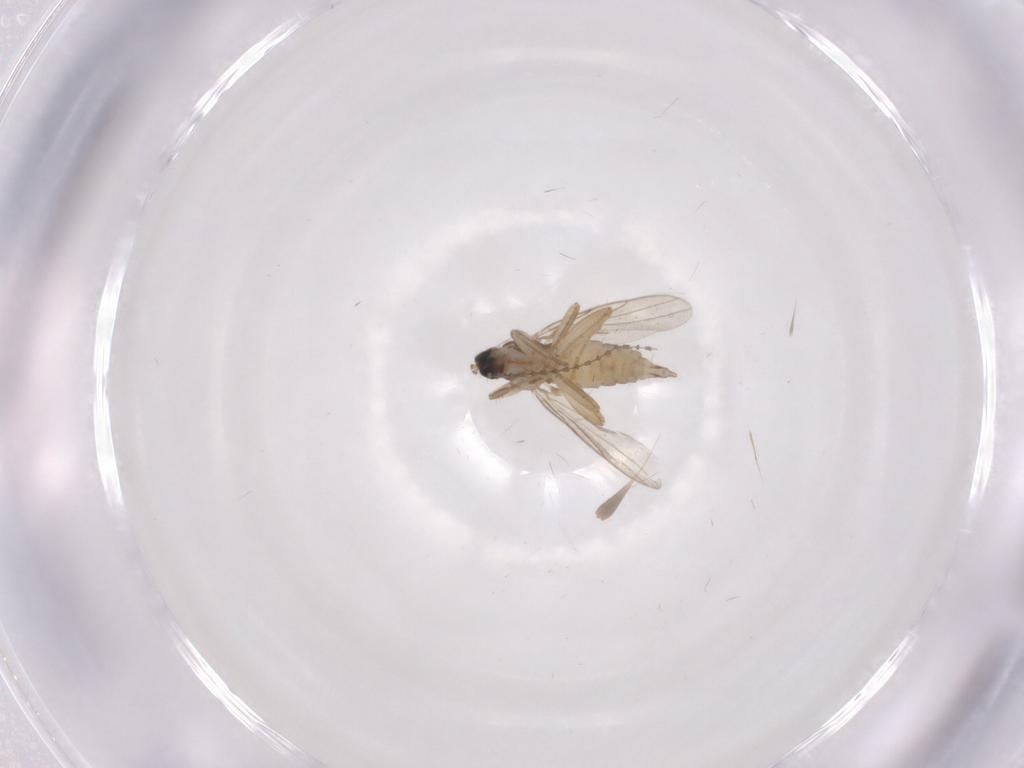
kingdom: Animalia
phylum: Arthropoda
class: Insecta
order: Diptera
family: Hybotidae
